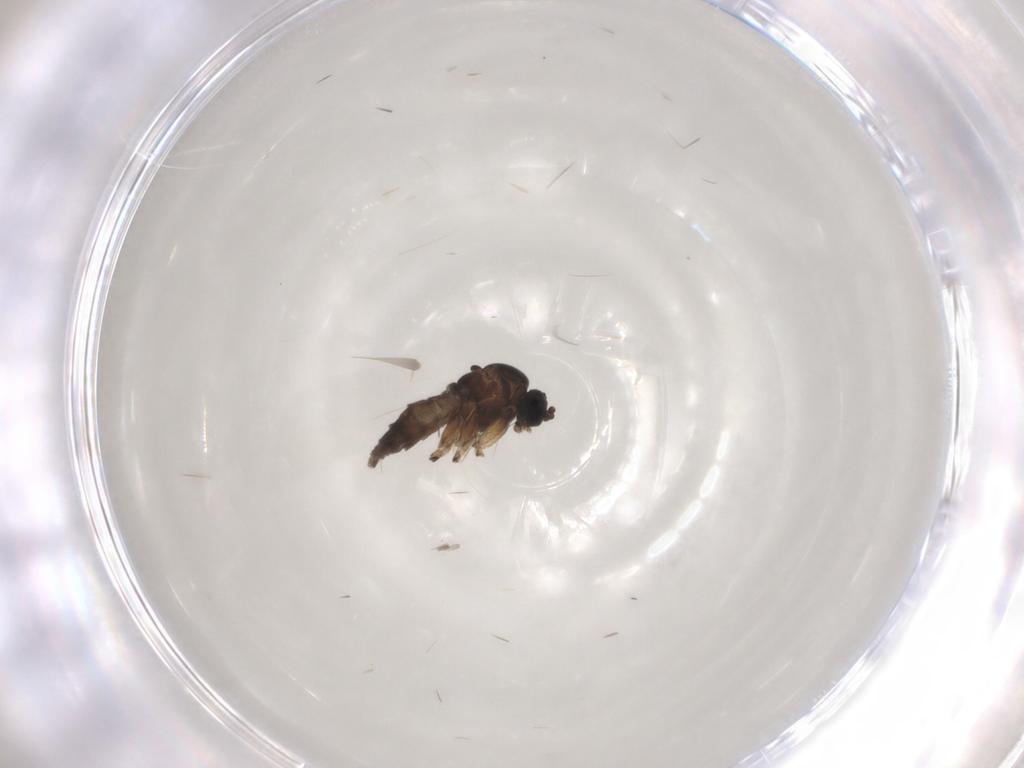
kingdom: Animalia
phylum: Arthropoda
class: Insecta
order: Diptera
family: Sciaridae
